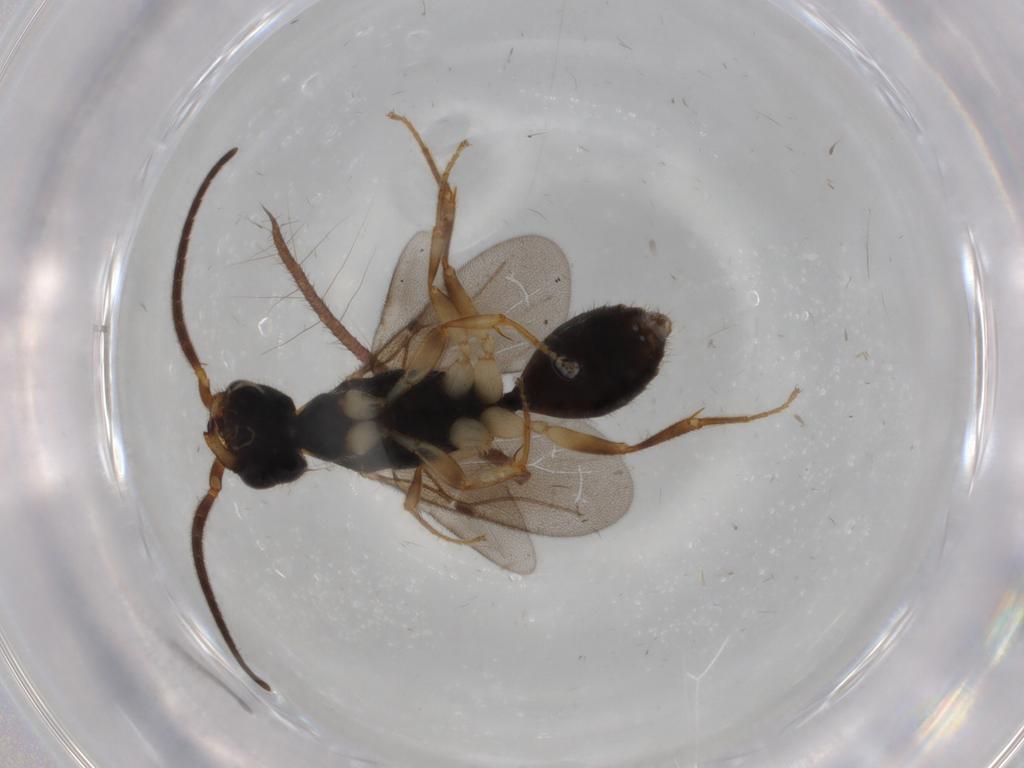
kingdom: Animalia
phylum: Arthropoda
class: Insecta
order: Hymenoptera
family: Bethylidae
